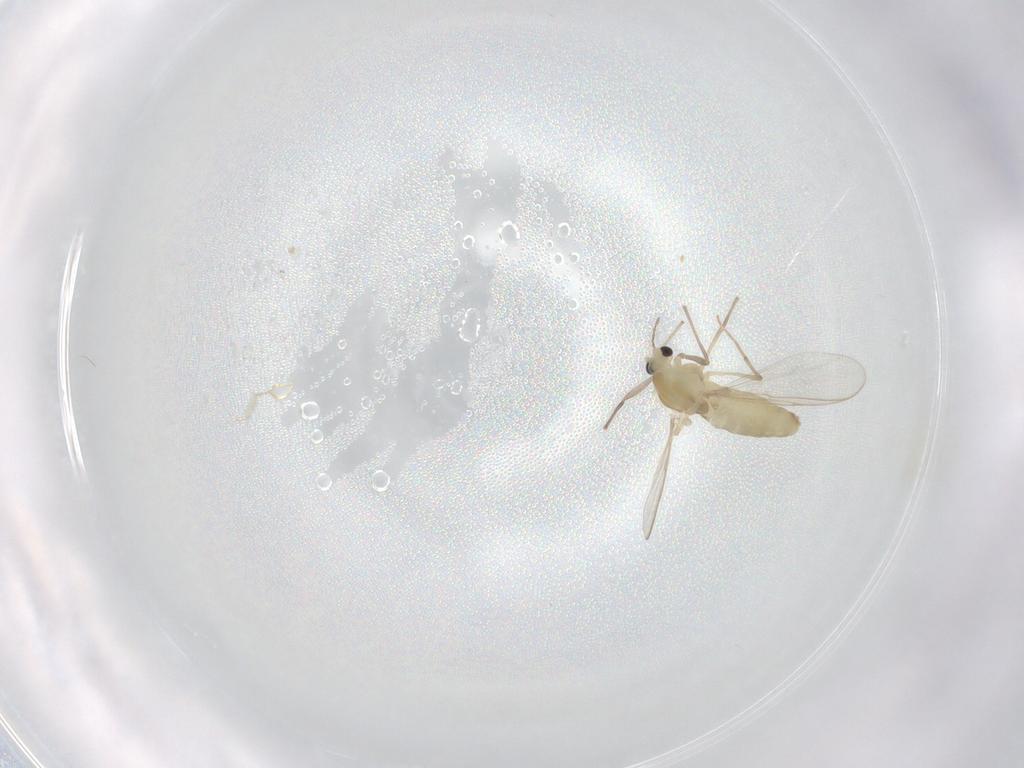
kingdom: Animalia
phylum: Arthropoda
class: Insecta
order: Diptera
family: Chironomidae
